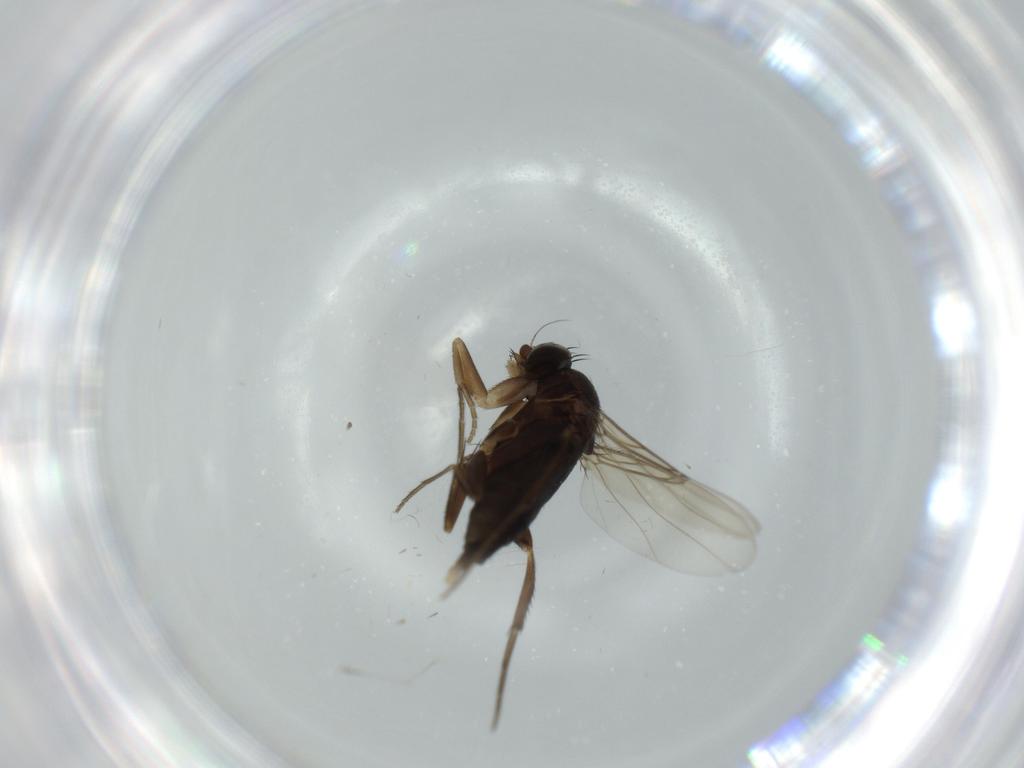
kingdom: Animalia
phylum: Arthropoda
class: Insecta
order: Diptera
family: Phoridae
